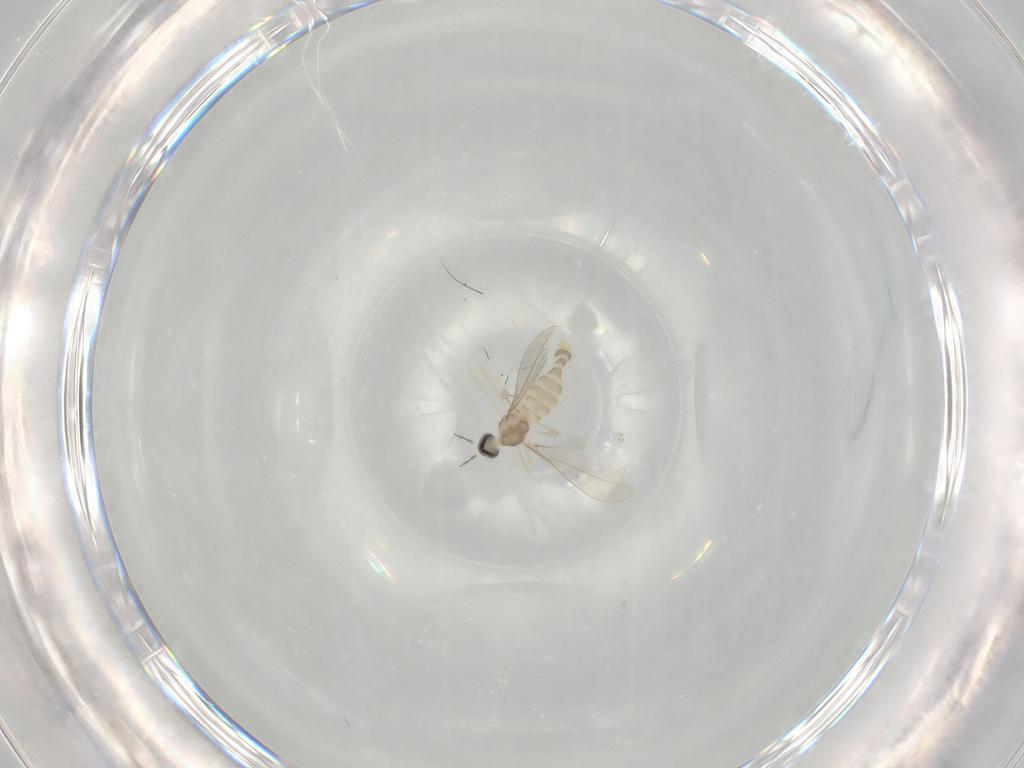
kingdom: Animalia
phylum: Arthropoda
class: Insecta
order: Diptera
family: Cecidomyiidae
